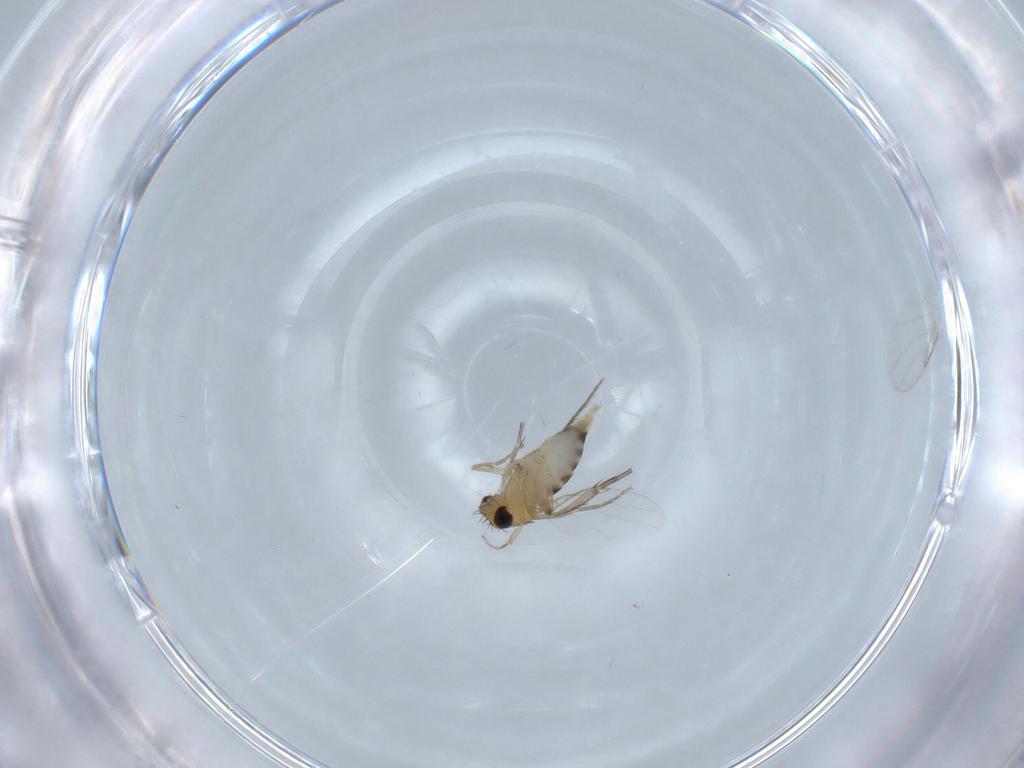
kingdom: Animalia
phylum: Arthropoda
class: Insecta
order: Diptera
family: Phoridae
